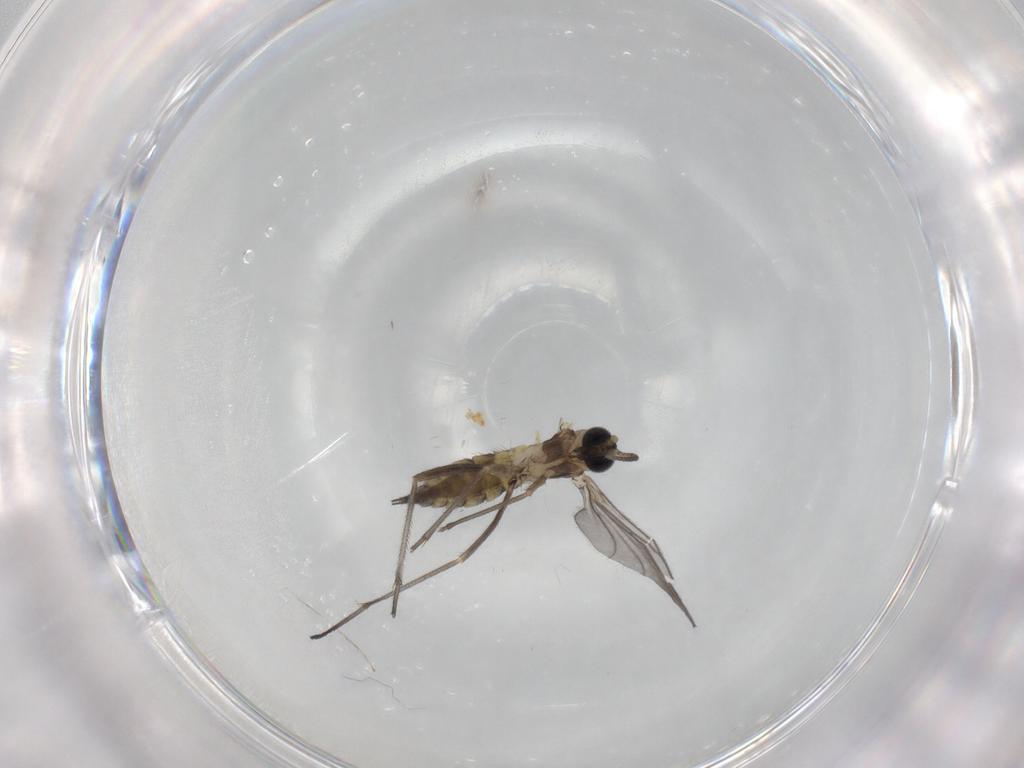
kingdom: Animalia
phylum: Arthropoda
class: Insecta
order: Diptera
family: Sciaridae
